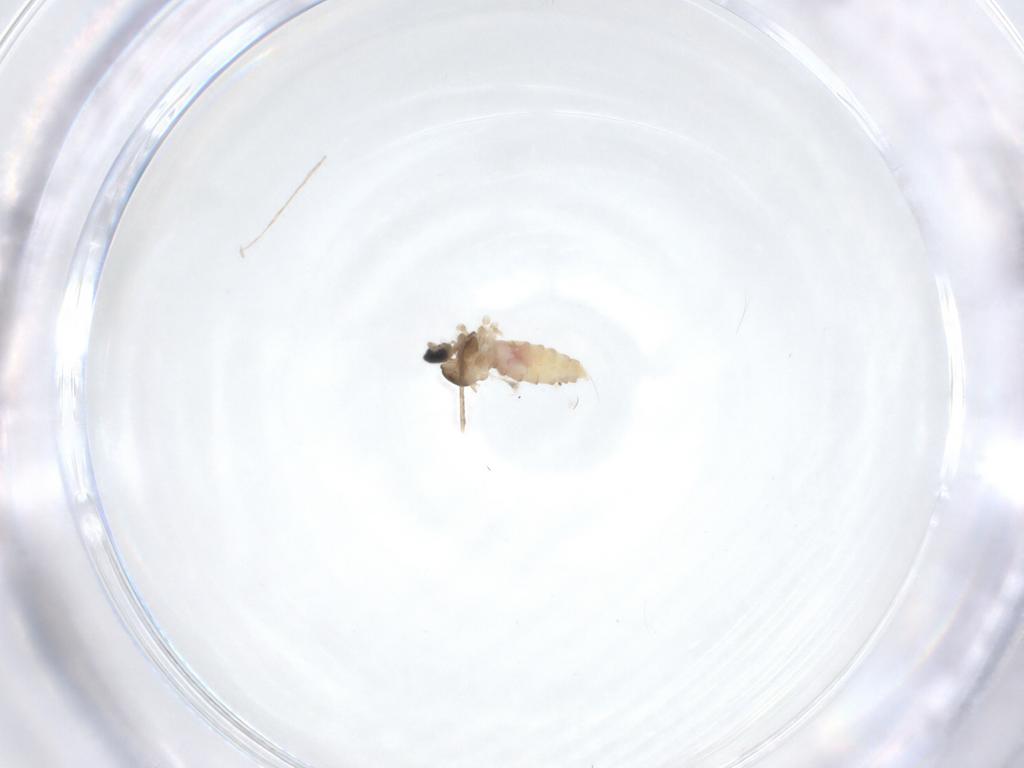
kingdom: Animalia
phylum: Arthropoda
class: Insecta
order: Diptera
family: Cecidomyiidae
